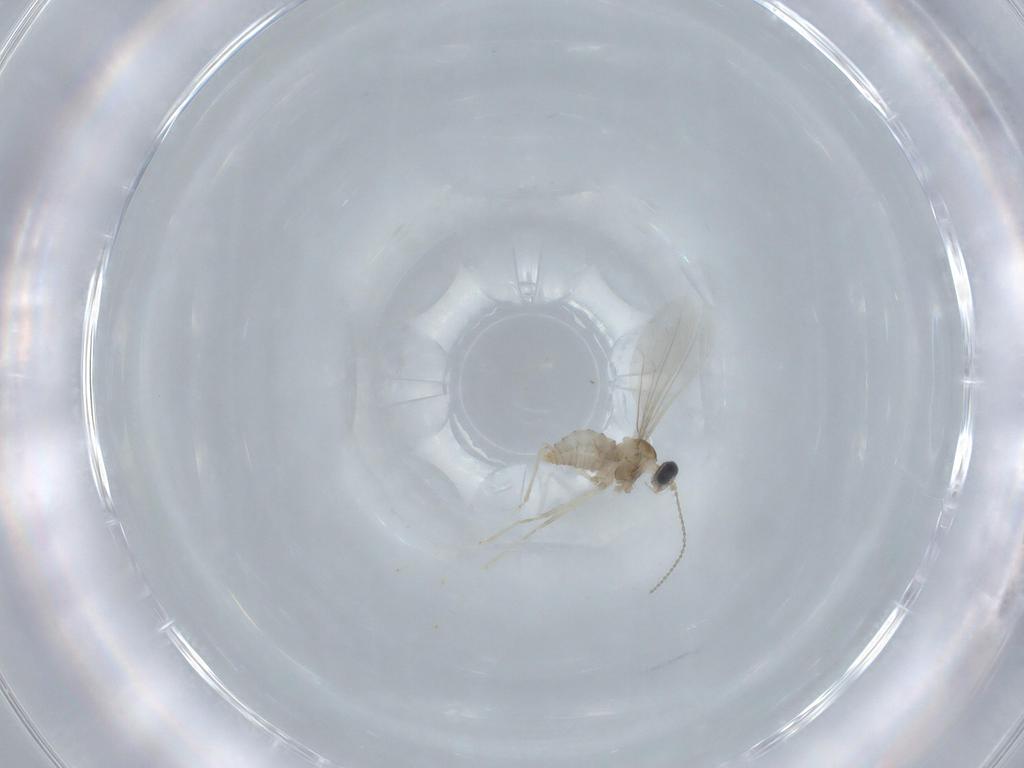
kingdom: Animalia
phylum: Arthropoda
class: Insecta
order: Diptera
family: Cecidomyiidae
